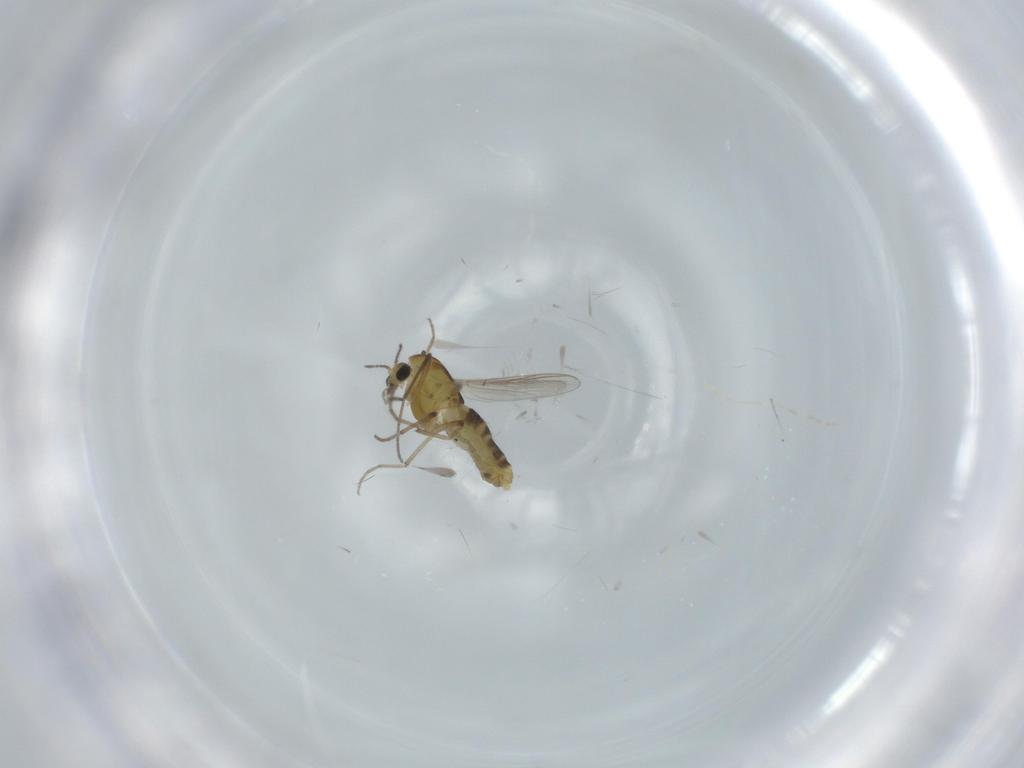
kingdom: Animalia
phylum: Arthropoda
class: Insecta
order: Diptera
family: Chironomidae
